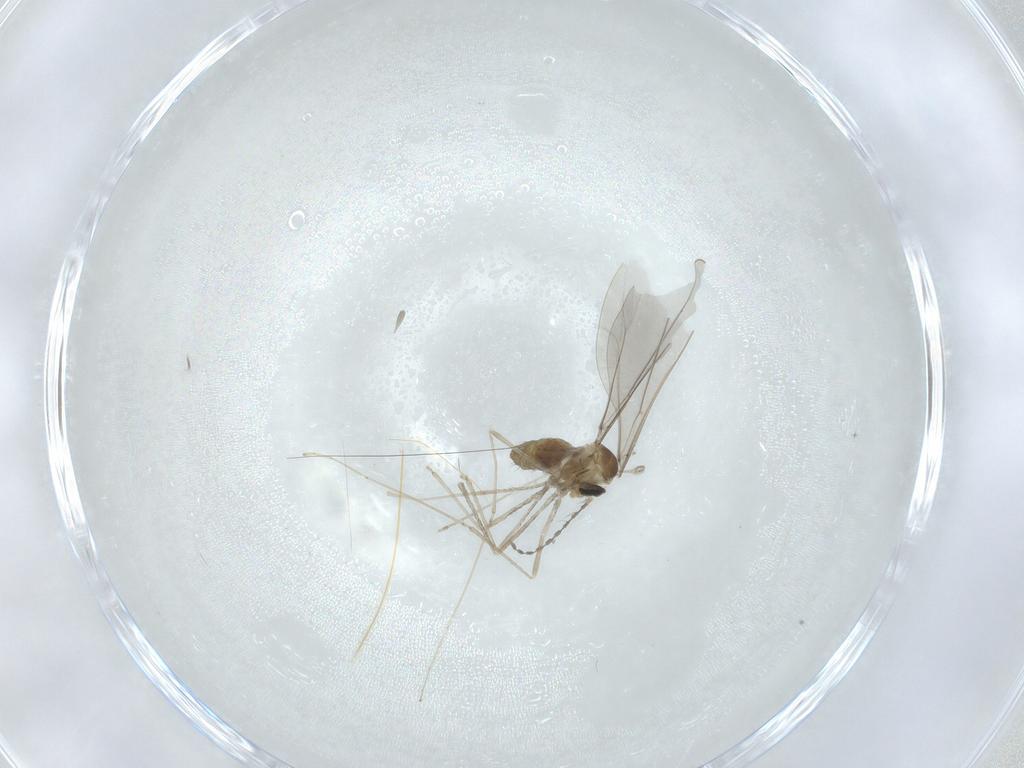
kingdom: Animalia
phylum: Arthropoda
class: Insecta
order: Diptera
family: Cecidomyiidae
